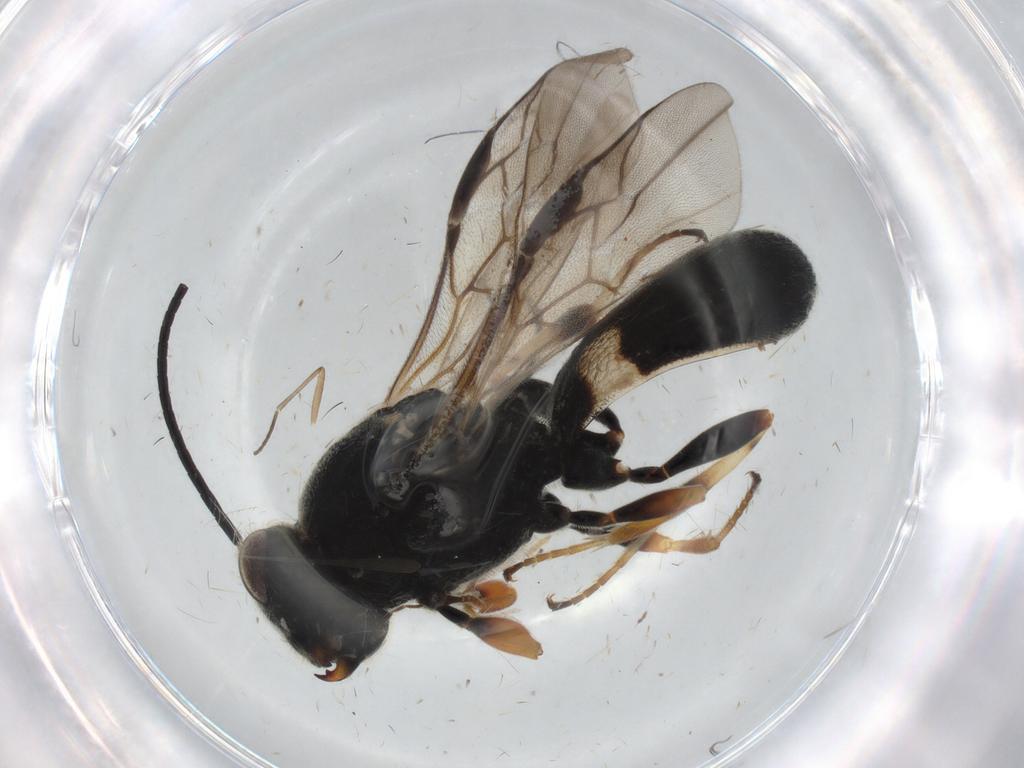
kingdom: Animalia
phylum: Arthropoda
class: Insecta
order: Hymenoptera
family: Braconidae
